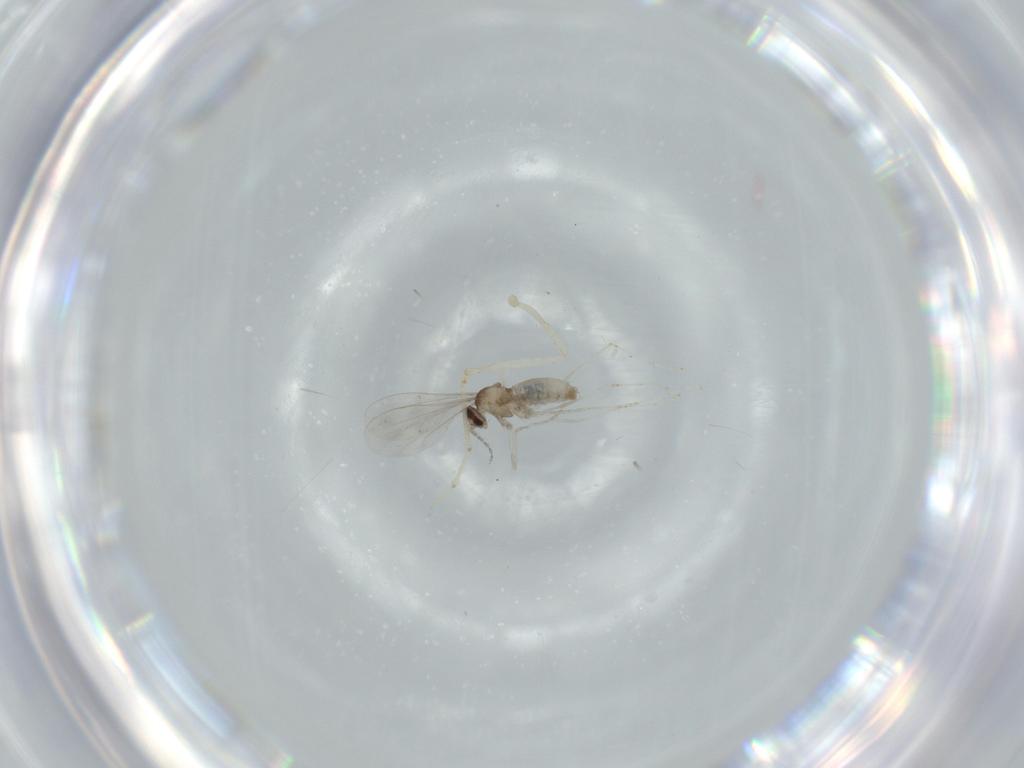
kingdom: Animalia
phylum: Arthropoda
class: Insecta
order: Diptera
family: Cecidomyiidae
